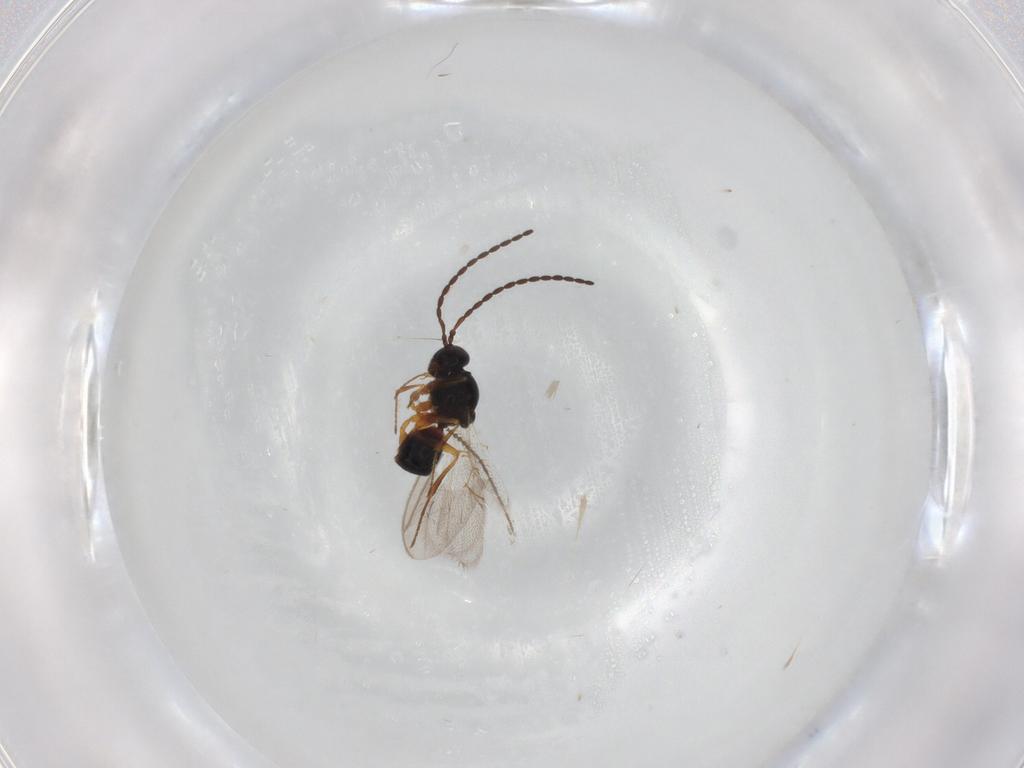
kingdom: Animalia
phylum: Arthropoda
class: Insecta
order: Hymenoptera
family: Figitidae
